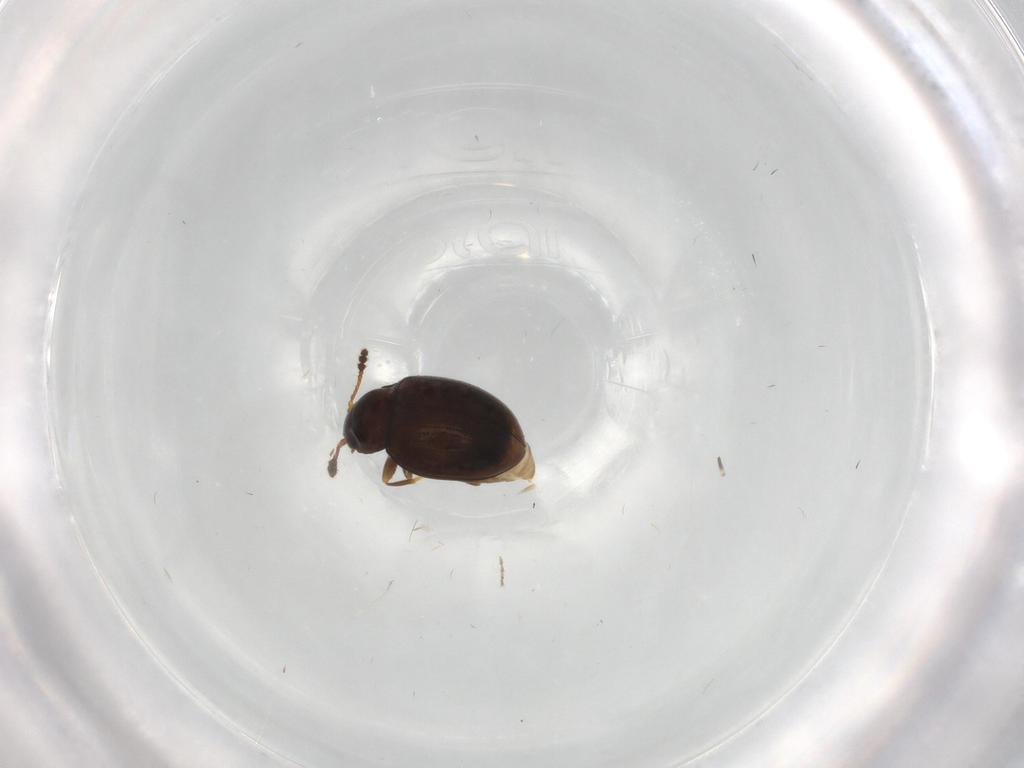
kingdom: Animalia
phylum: Arthropoda
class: Insecta
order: Coleoptera
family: Erotylidae
